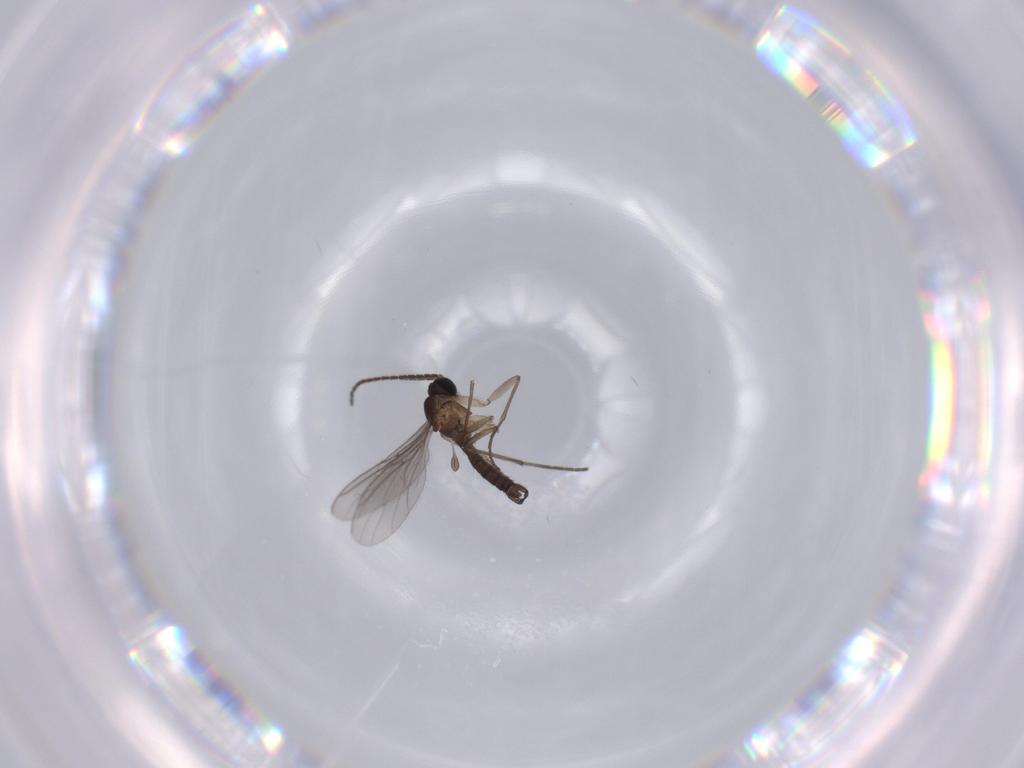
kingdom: Animalia
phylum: Arthropoda
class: Insecta
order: Diptera
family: Sciaridae
